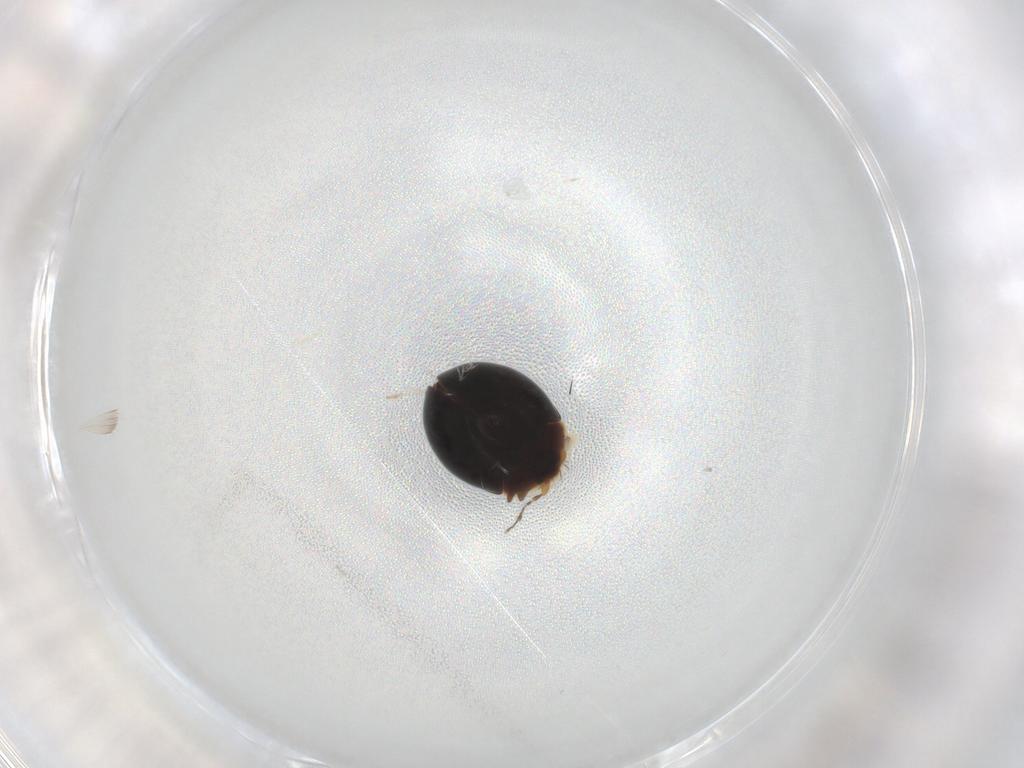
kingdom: Animalia
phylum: Arthropoda
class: Insecta
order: Coleoptera
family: Corylophidae
